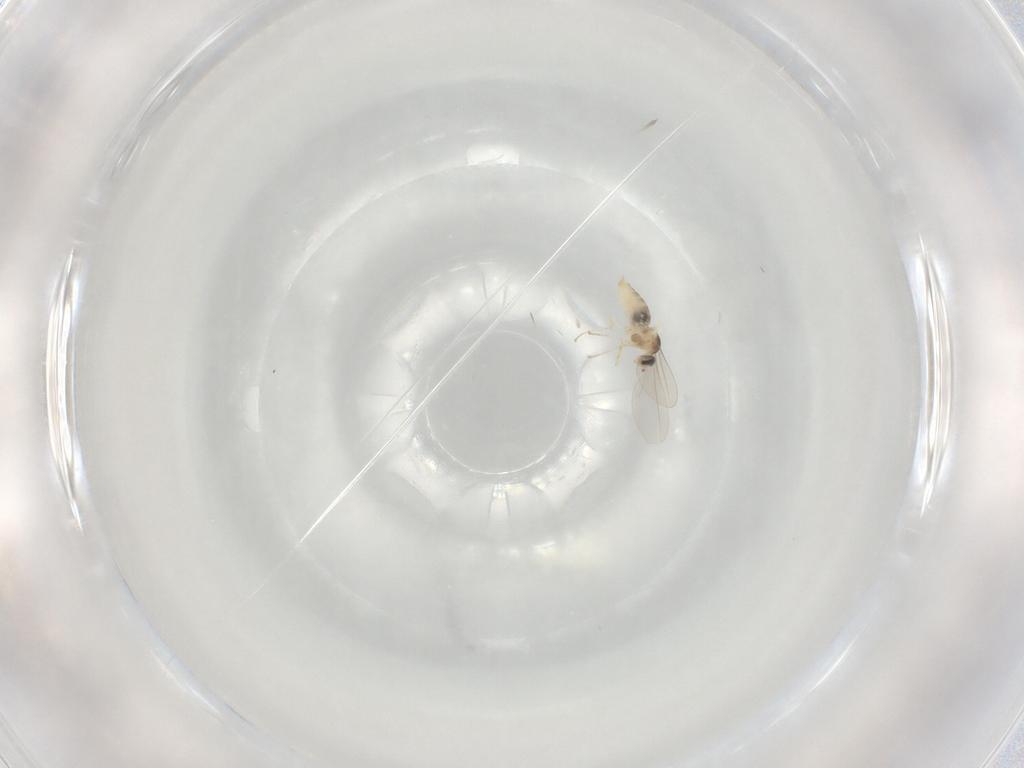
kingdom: Animalia
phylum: Arthropoda
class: Insecta
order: Diptera
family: Cecidomyiidae
